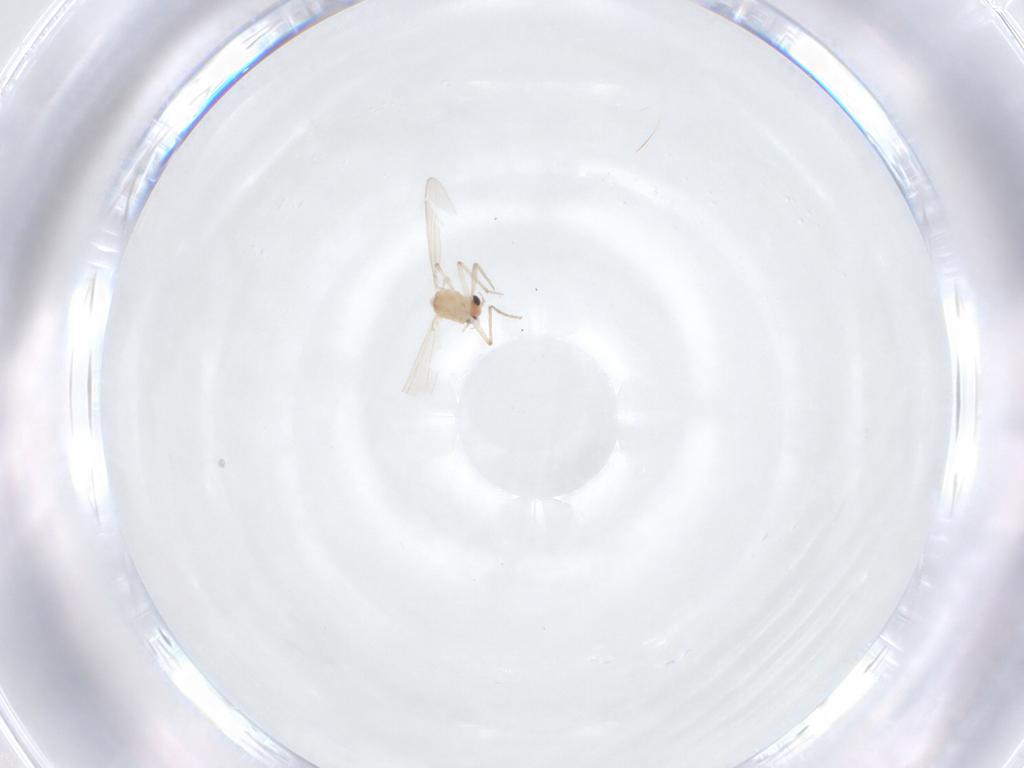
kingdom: Animalia
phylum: Arthropoda
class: Insecta
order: Diptera
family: Chironomidae
